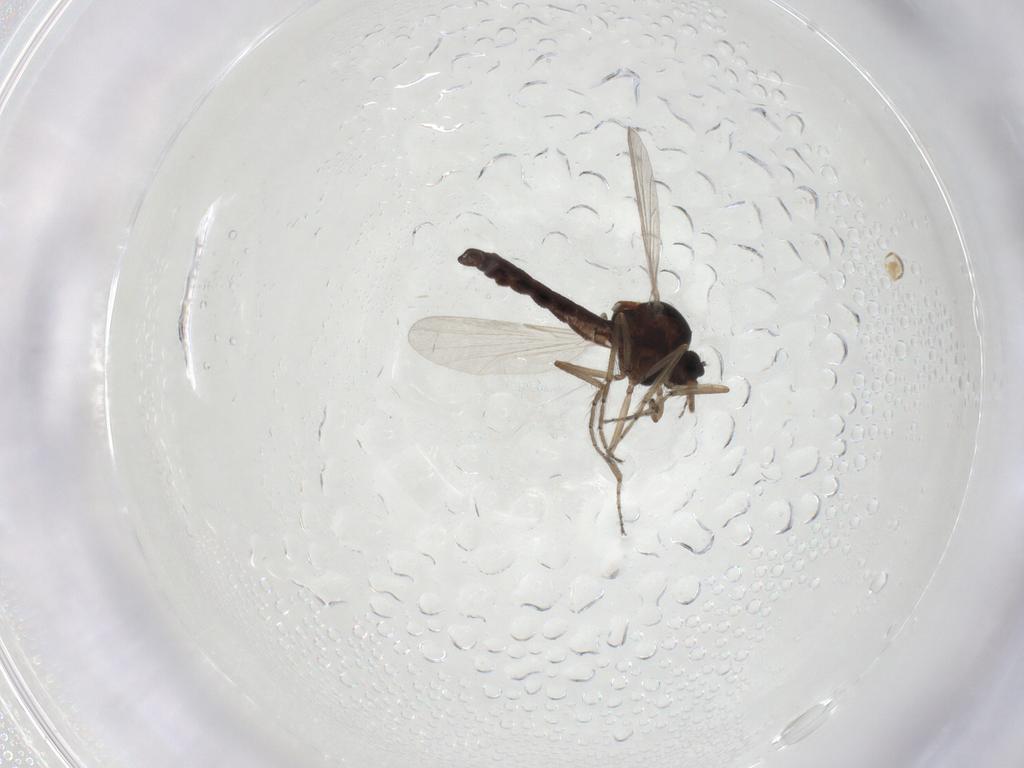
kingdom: Animalia
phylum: Arthropoda
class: Insecta
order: Diptera
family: Ceratopogonidae
